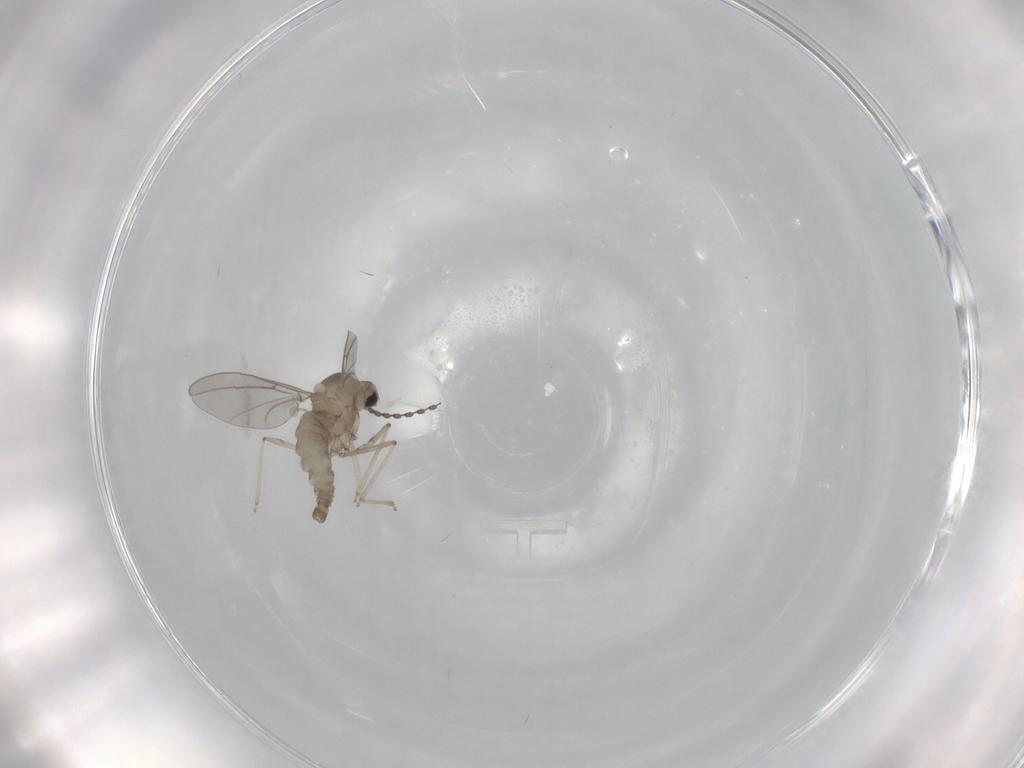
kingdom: Animalia
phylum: Arthropoda
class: Insecta
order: Diptera
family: Cecidomyiidae
